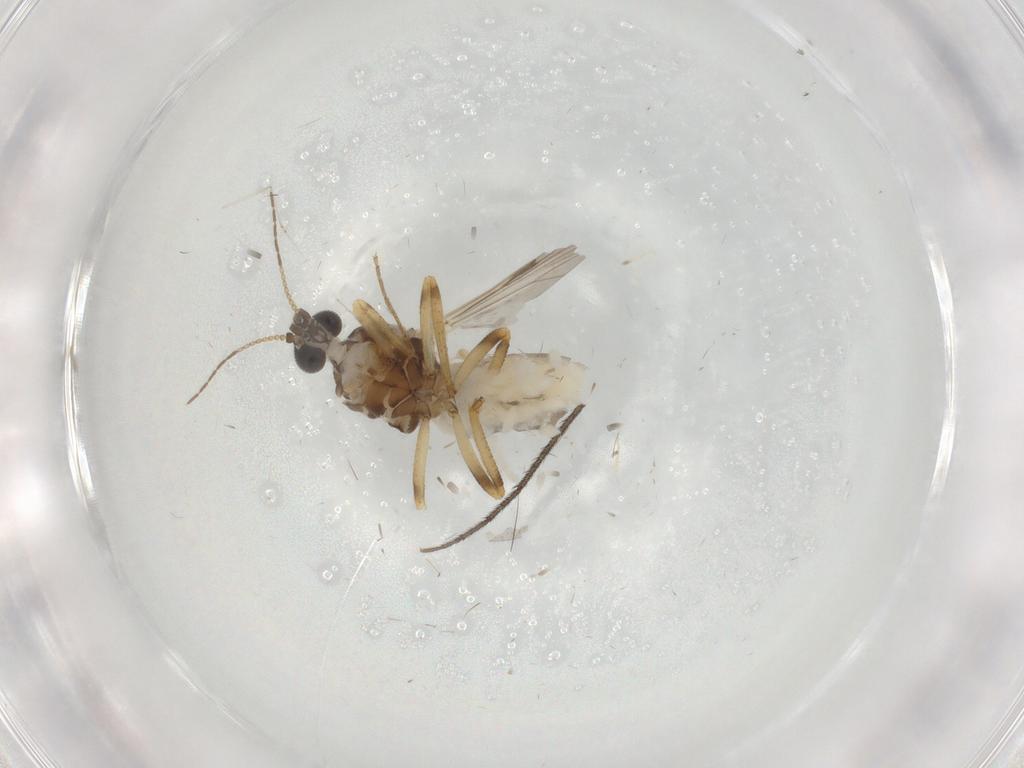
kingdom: Animalia
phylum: Arthropoda
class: Insecta
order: Diptera
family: Ceratopogonidae
